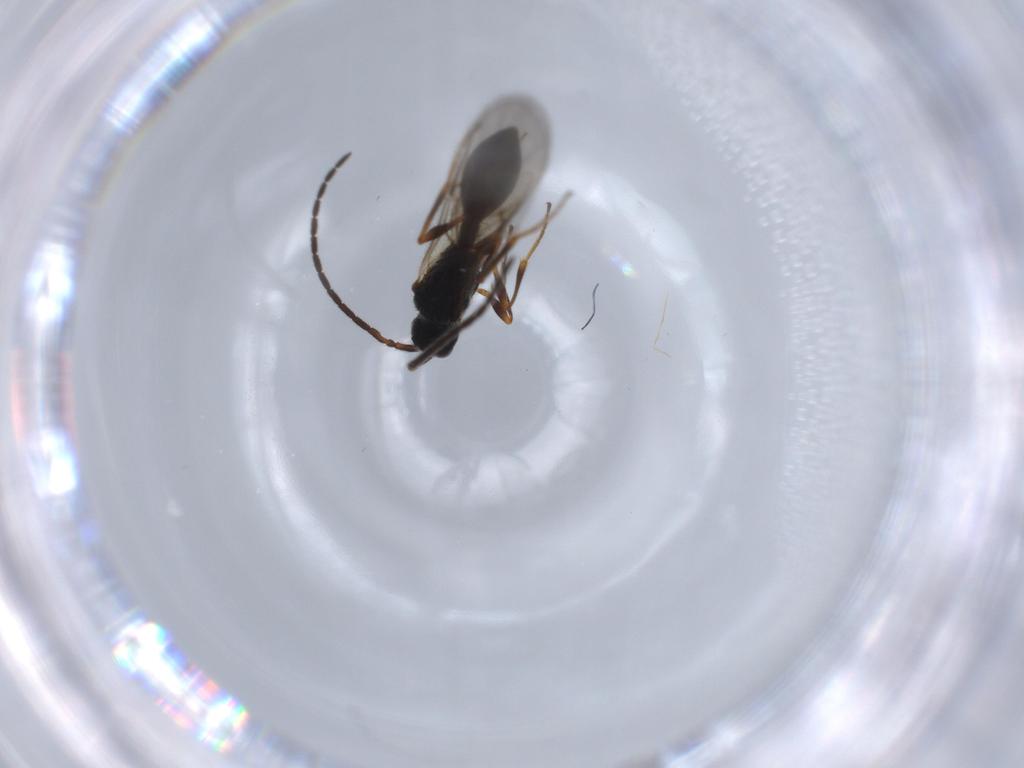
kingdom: Animalia
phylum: Arthropoda
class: Insecta
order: Hymenoptera
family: Diapriidae
